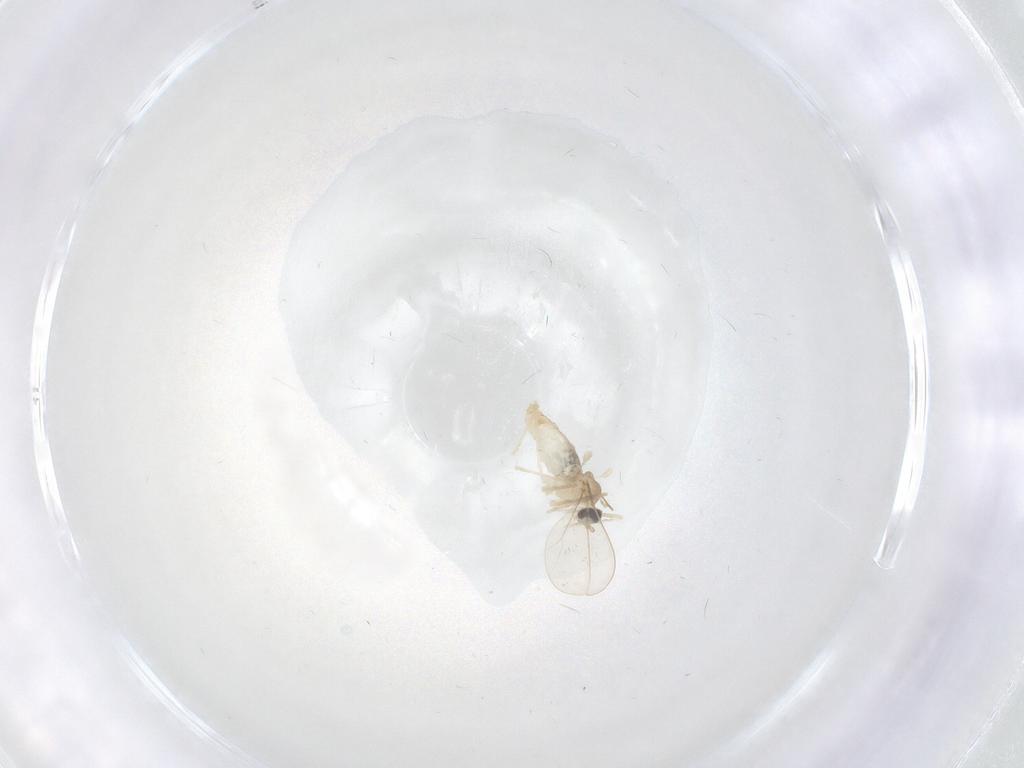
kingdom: Animalia
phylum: Arthropoda
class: Insecta
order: Diptera
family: Cecidomyiidae
